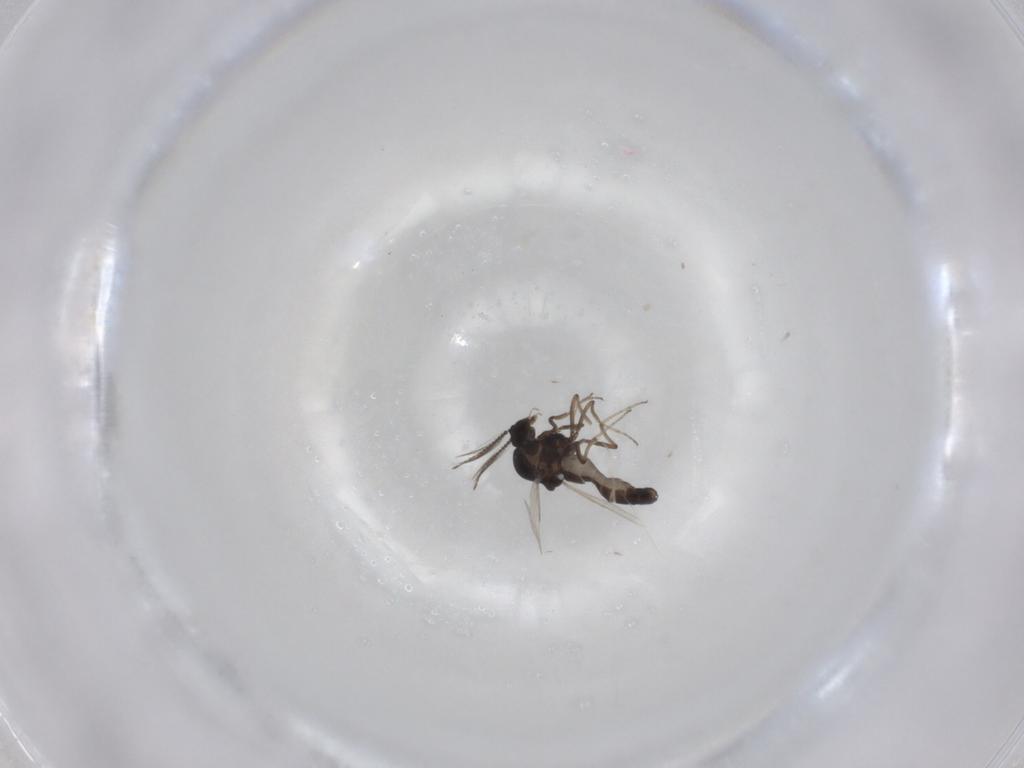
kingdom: Animalia
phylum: Arthropoda
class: Insecta
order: Diptera
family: Ceratopogonidae
